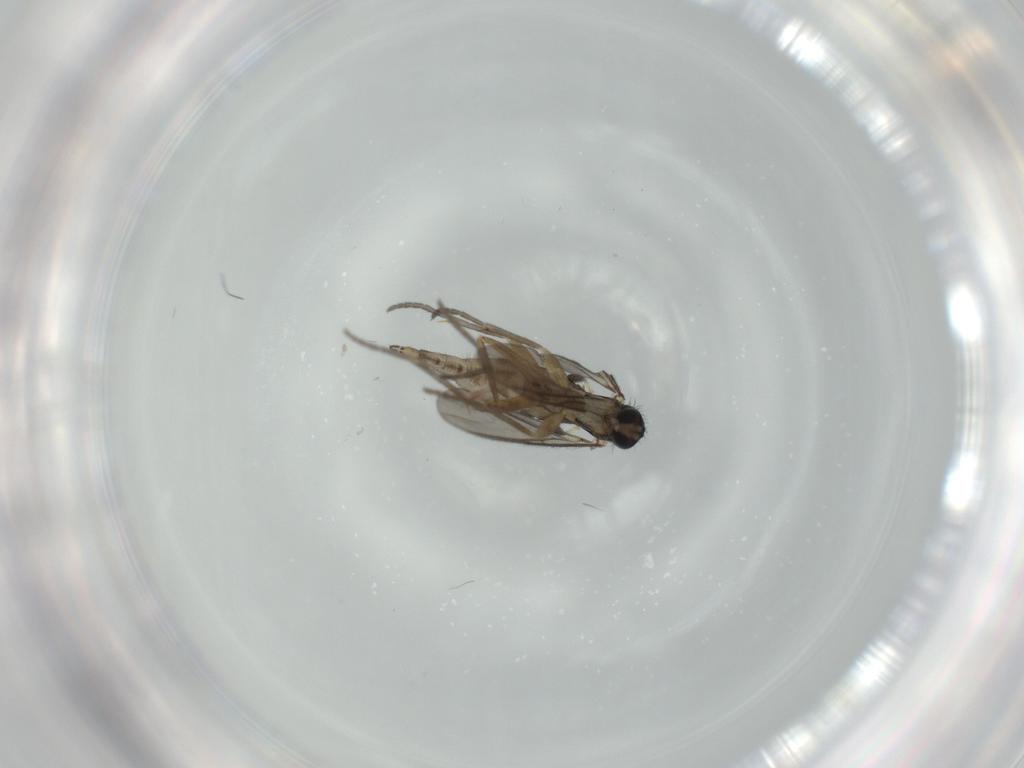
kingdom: Animalia
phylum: Arthropoda
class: Insecta
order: Diptera
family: Sciaridae
